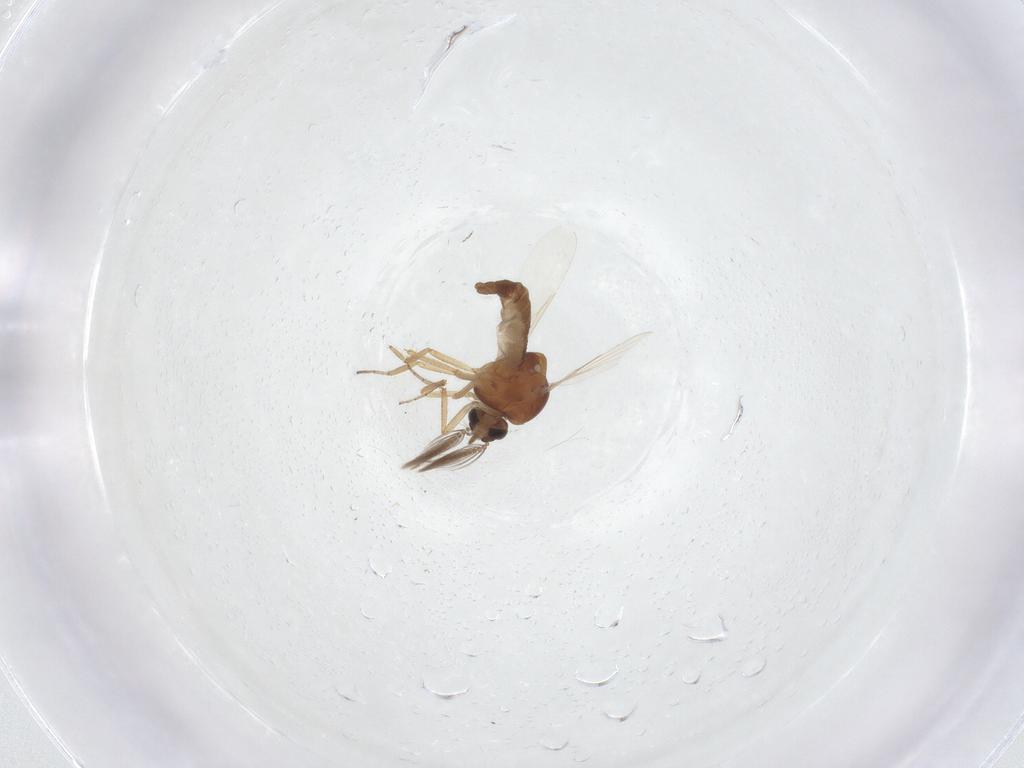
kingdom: Animalia
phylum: Arthropoda
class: Insecta
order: Diptera
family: Ceratopogonidae
